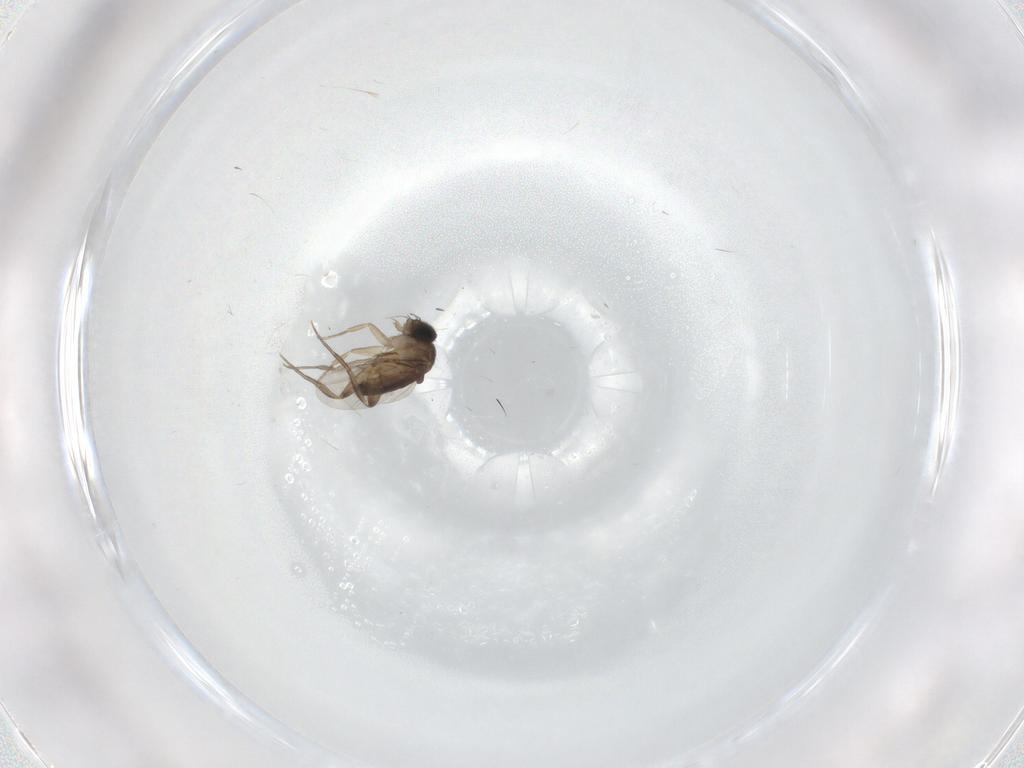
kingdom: Animalia
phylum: Arthropoda
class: Insecta
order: Diptera
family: Phoridae
